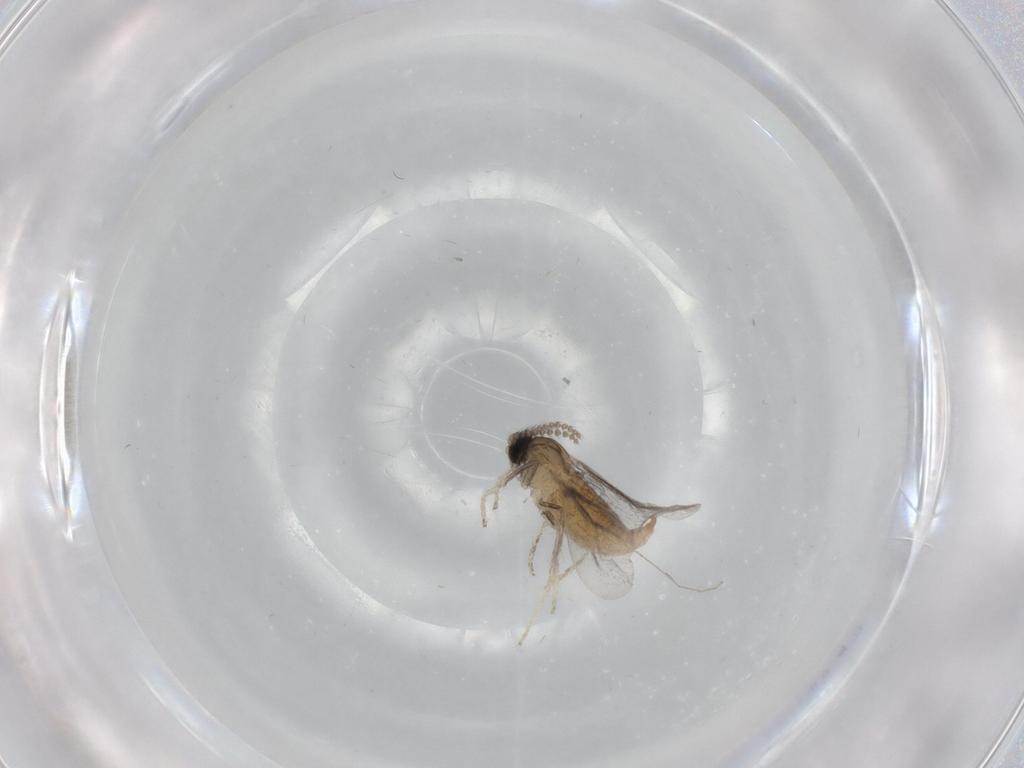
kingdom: Animalia
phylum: Arthropoda
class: Insecta
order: Diptera
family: Cecidomyiidae
